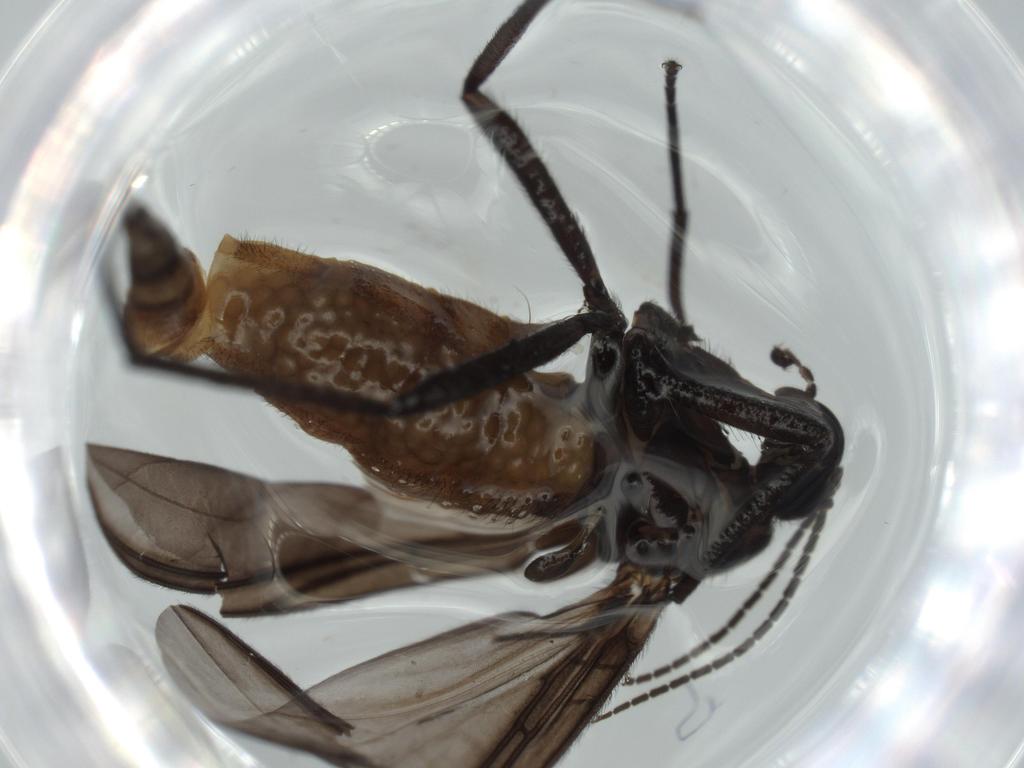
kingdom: Animalia
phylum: Arthropoda
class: Insecta
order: Diptera
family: Cecidomyiidae
